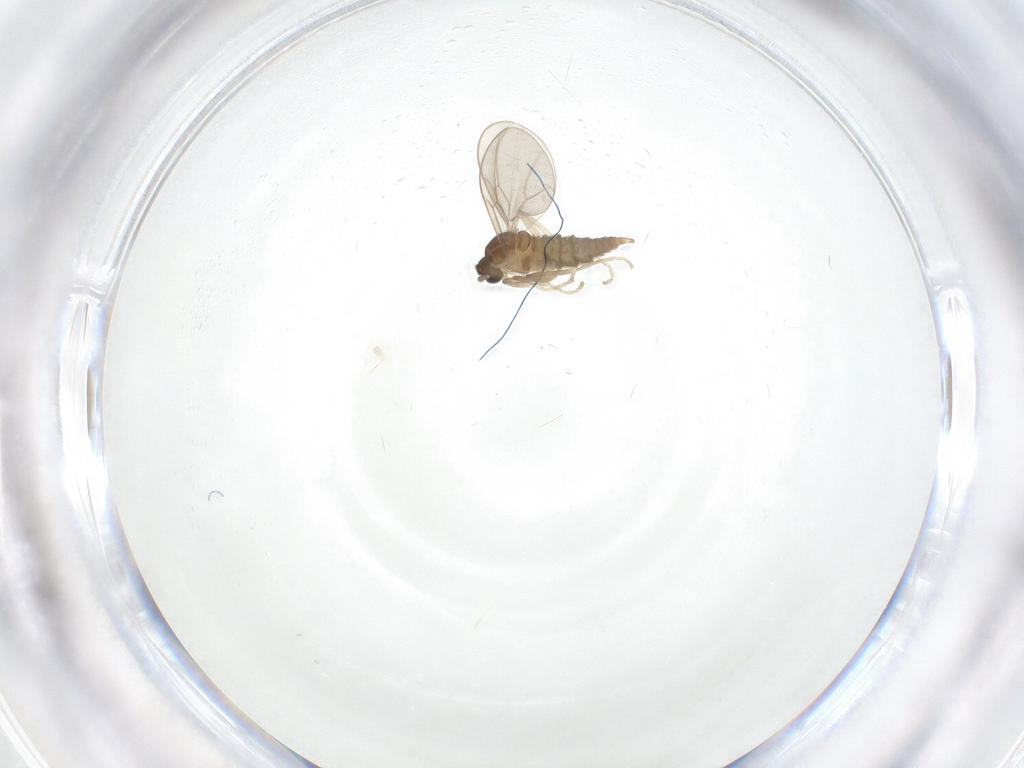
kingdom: Animalia
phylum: Arthropoda
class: Insecta
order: Diptera
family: Cecidomyiidae
